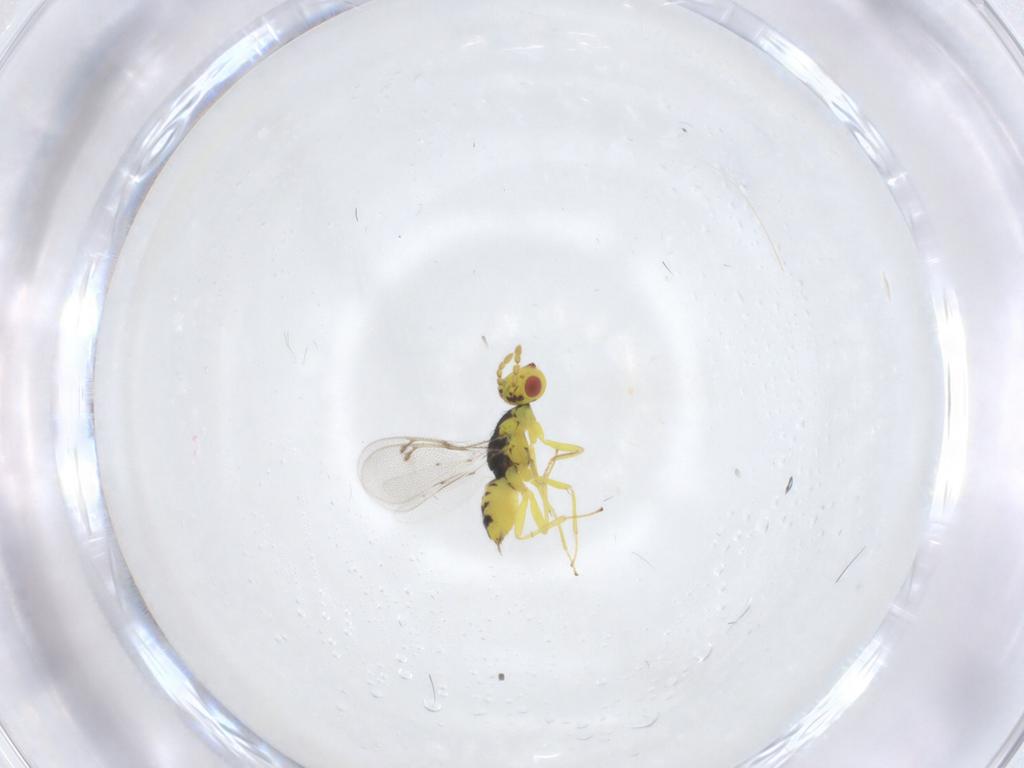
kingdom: Animalia
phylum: Arthropoda
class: Insecta
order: Hymenoptera
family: Eulophidae
